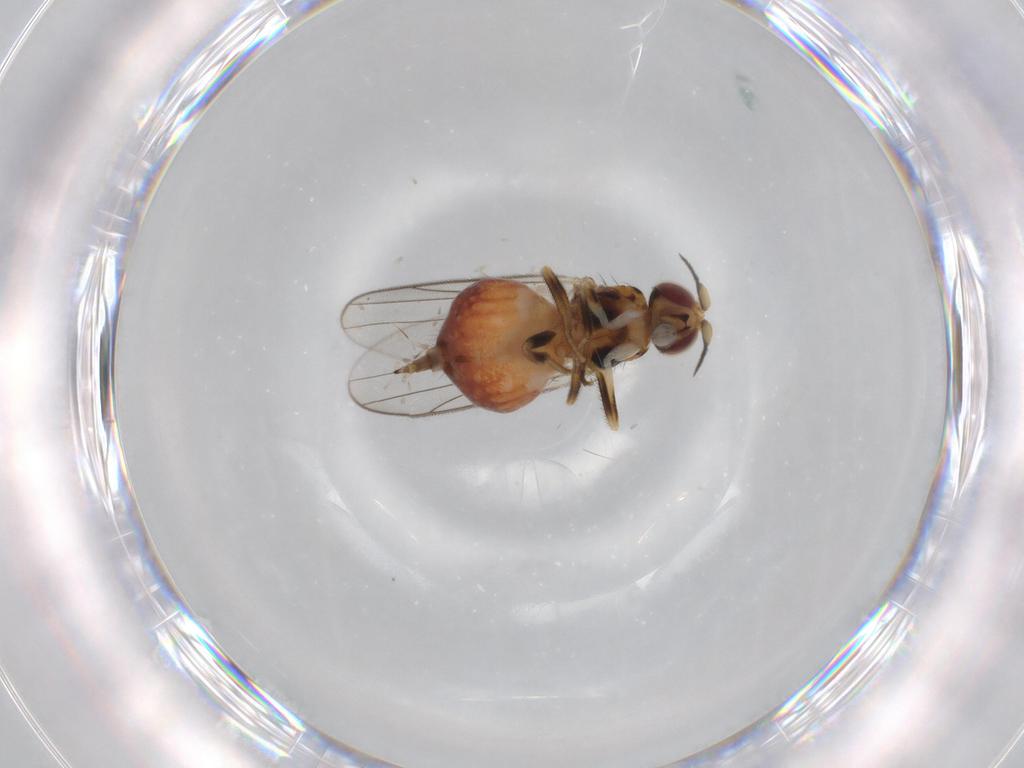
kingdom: Animalia
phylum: Arthropoda
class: Insecta
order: Diptera
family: Chloropidae
